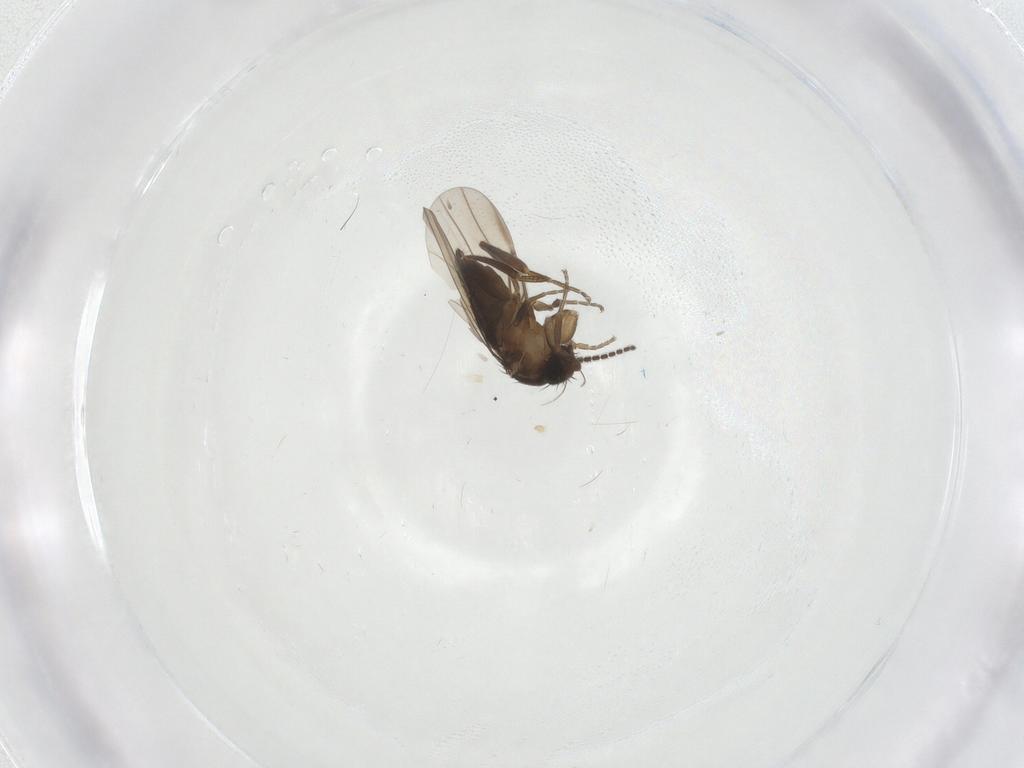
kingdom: Animalia
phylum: Arthropoda
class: Insecta
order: Diptera
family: Sciaridae
